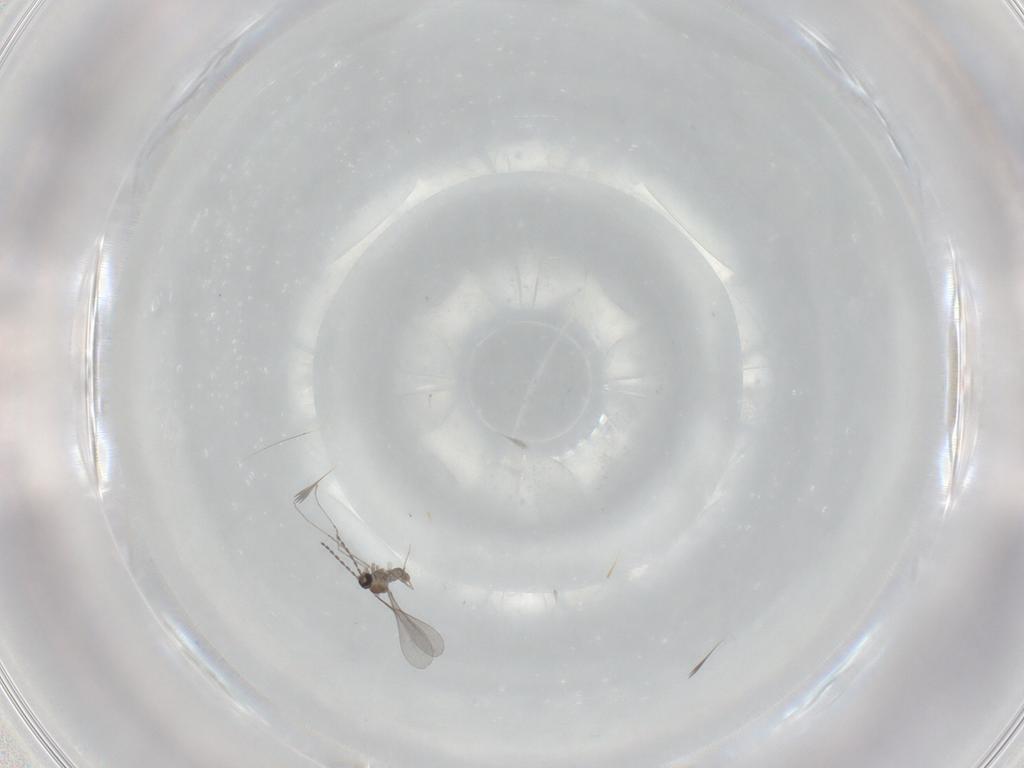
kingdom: Animalia
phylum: Arthropoda
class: Insecta
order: Diptera
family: Cecidomyiidae
